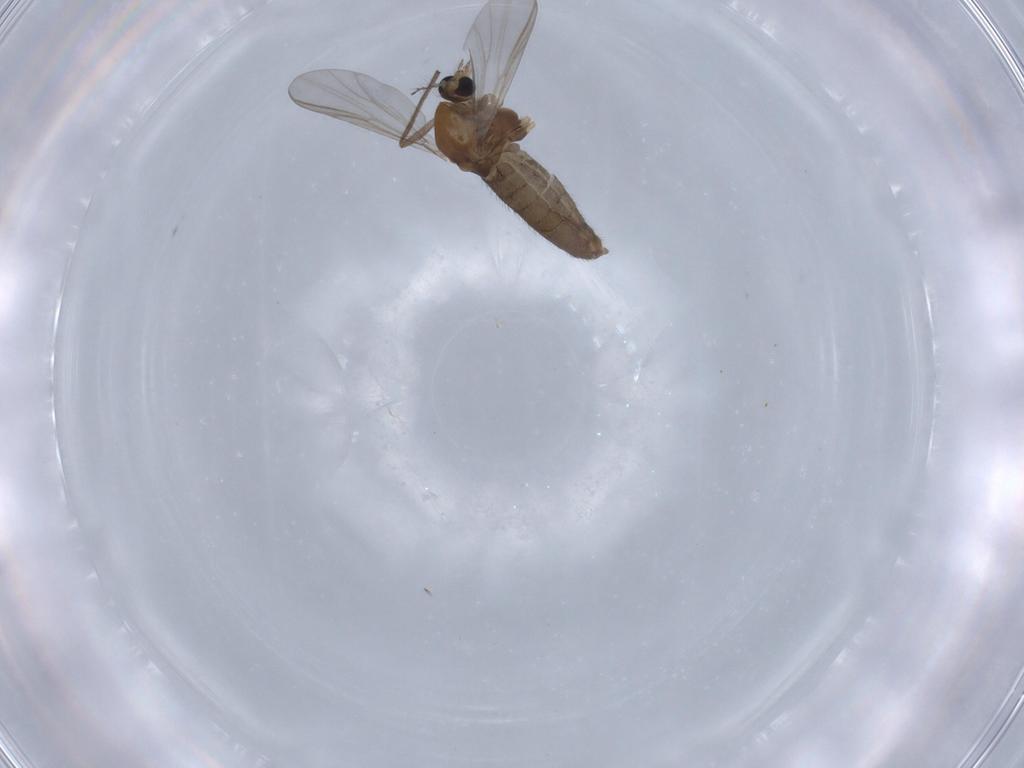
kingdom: Animalia
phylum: Arthropoda
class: Insecta
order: Diptera
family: Chironomidae
